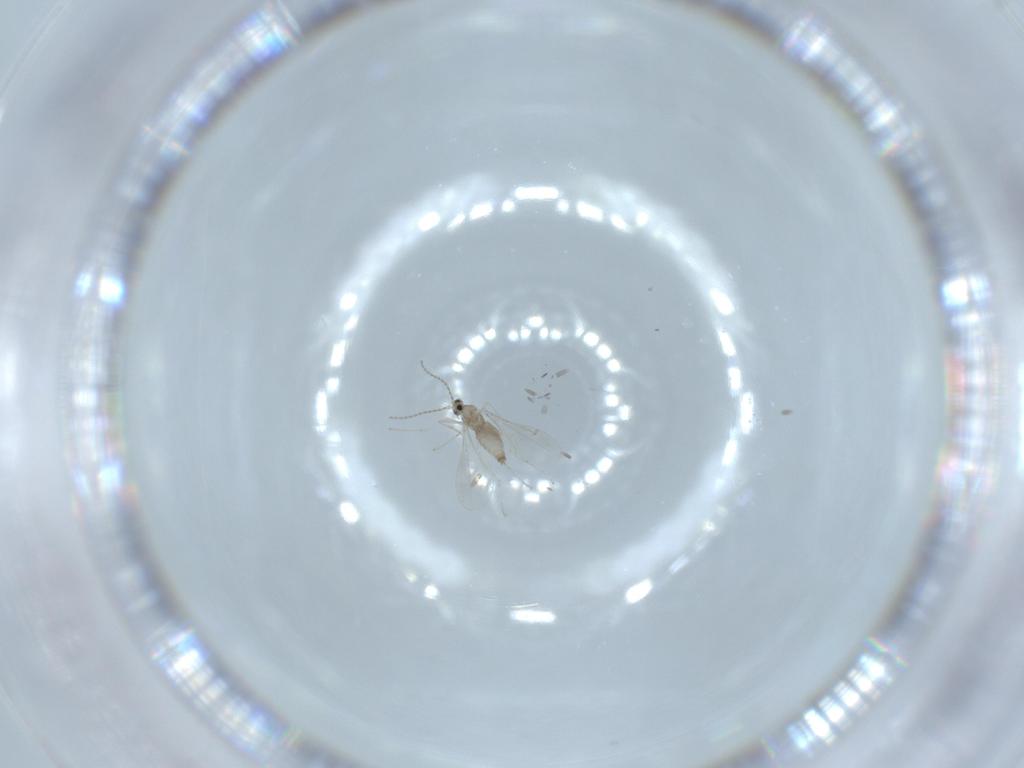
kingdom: Animalia
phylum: Arthropoda
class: Insecta
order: Diptera
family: Cecidomyiidae
